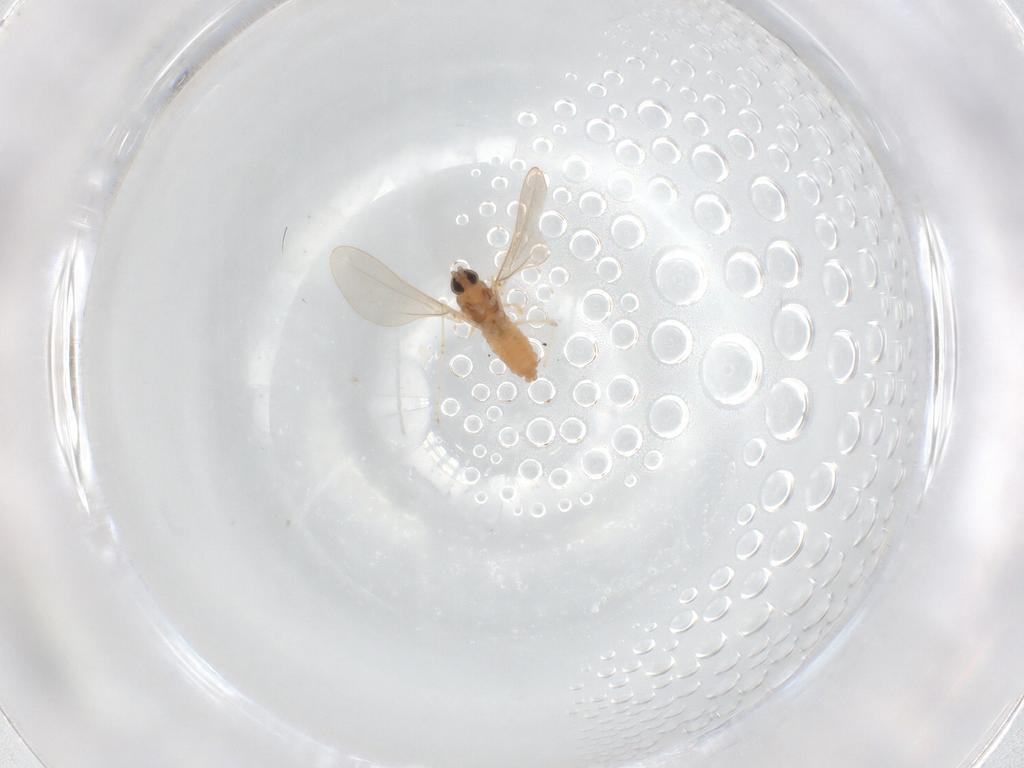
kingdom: Animalia
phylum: Arthropoda
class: Insecta
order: Diptera
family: Cecidomyiidae
